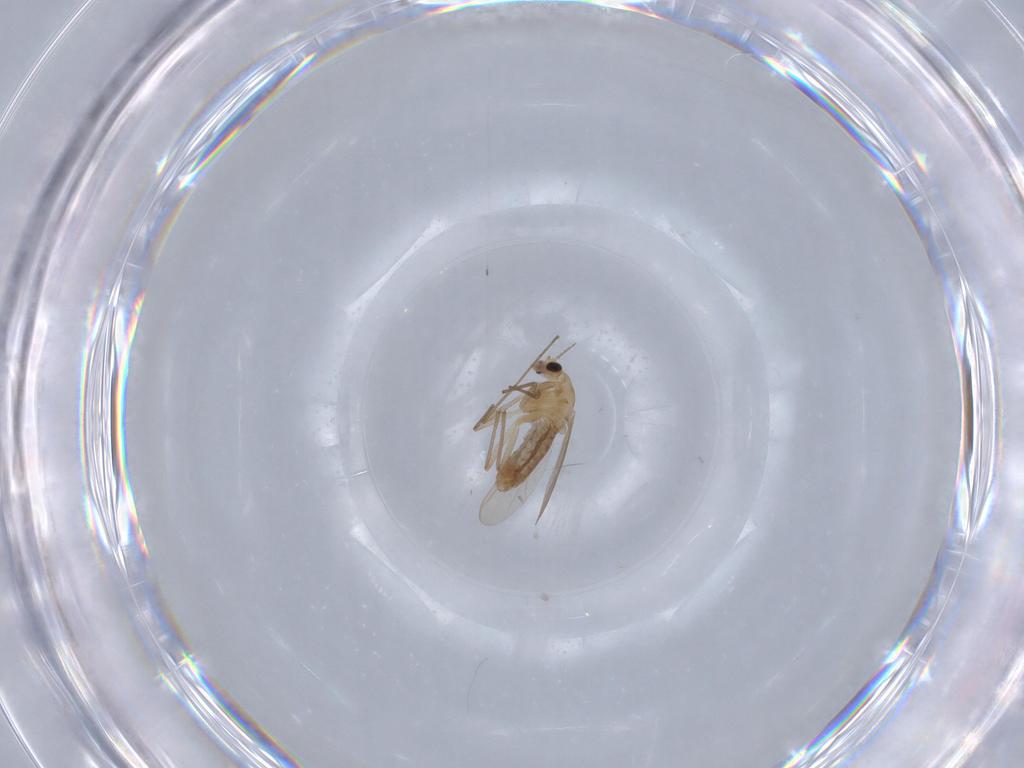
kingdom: Animalia
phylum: Arthropoda
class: Insecta
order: Diptera
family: Chironomidae
